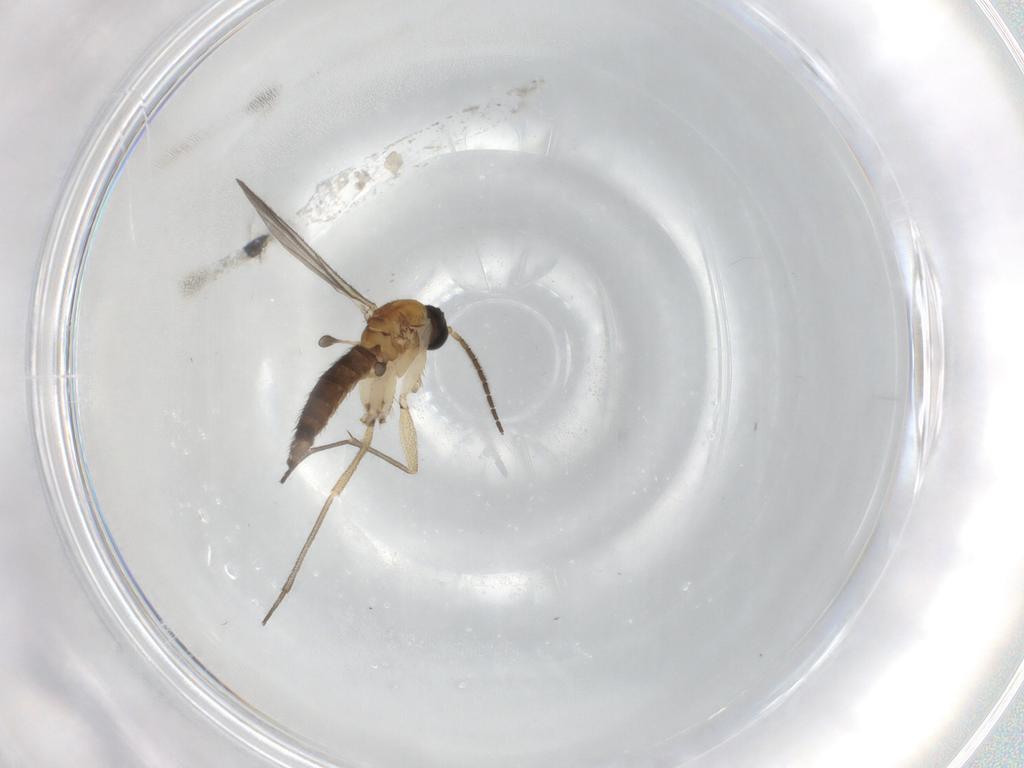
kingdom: Animalia
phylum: Arthropoda
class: Insecta
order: Diptera
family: Sciaridae
